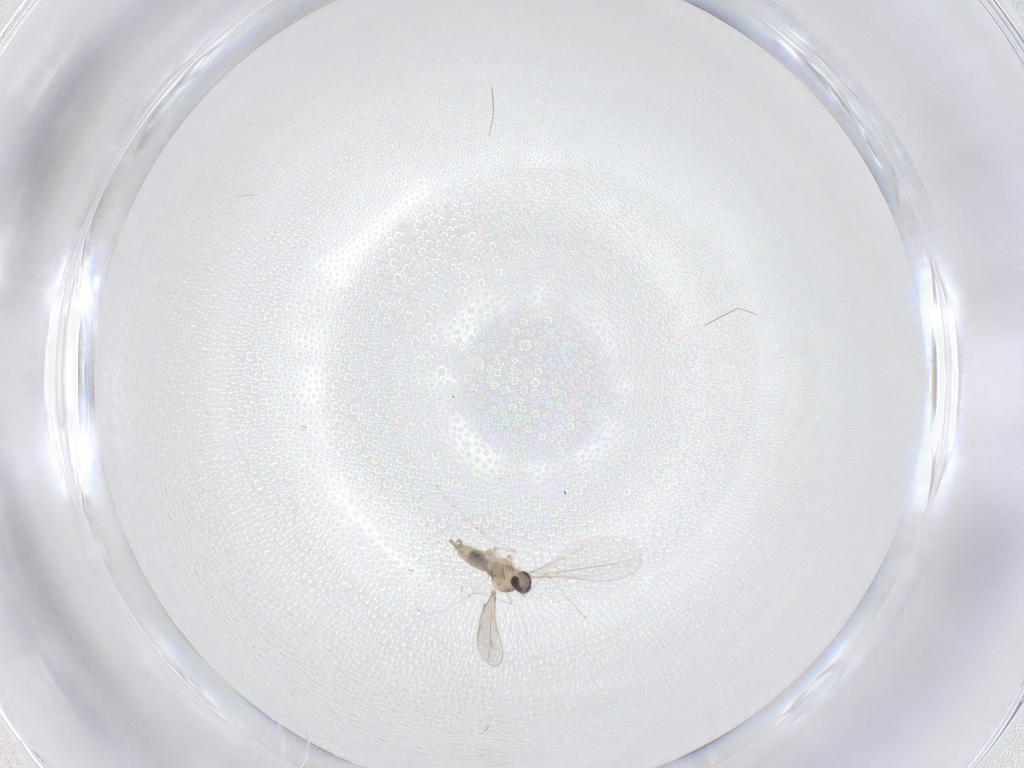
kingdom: Animalia
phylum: Arthropoda
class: Insecta
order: Diptera
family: Cecidomyiidae
